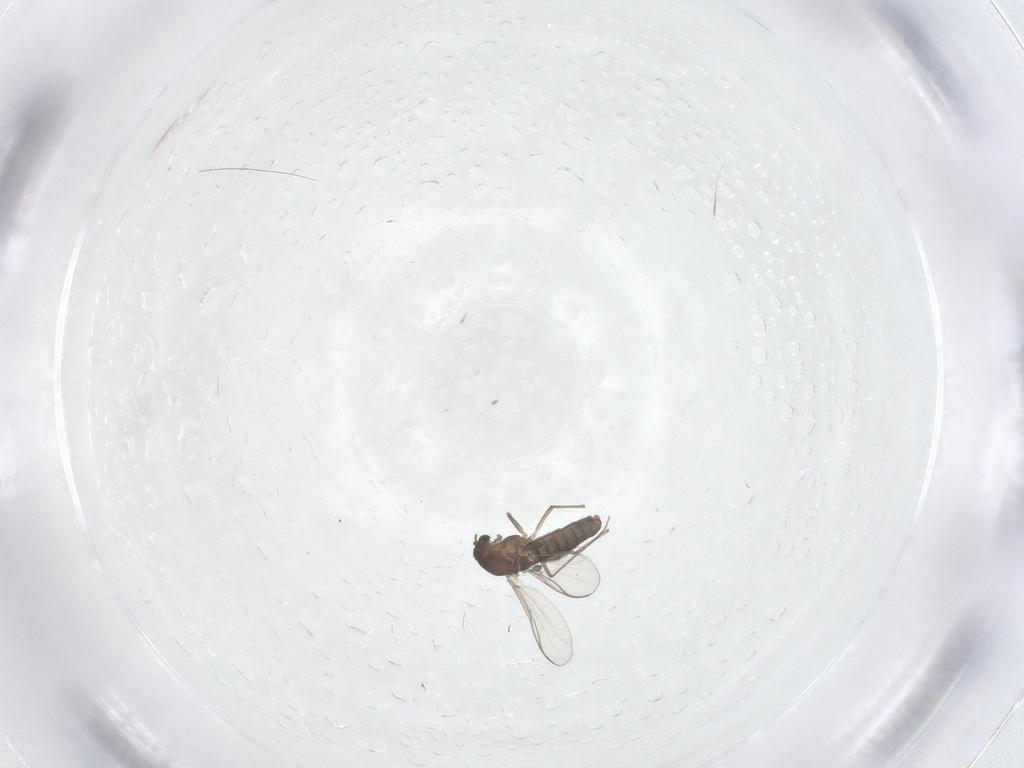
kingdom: Animalia
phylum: Arthropoda
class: Insecta
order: Diptera
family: Chironomidae
